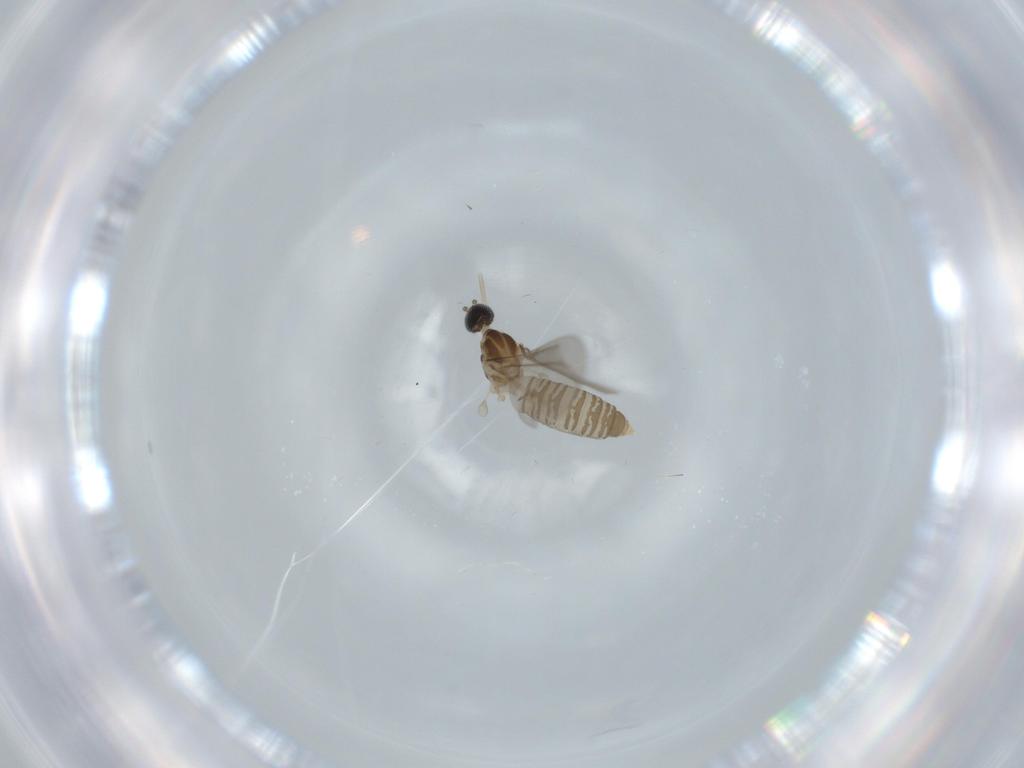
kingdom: Animalia
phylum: Arthropoda
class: Insecta
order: Diptera
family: Cecidomyiidae
